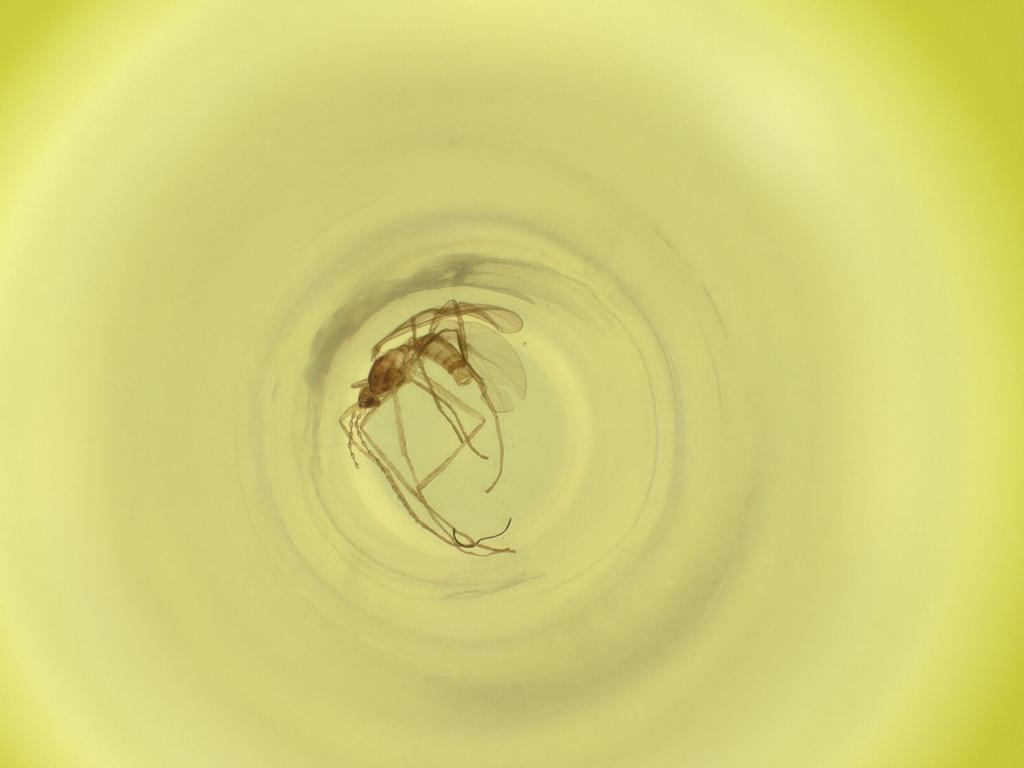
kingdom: Animalia
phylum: Arthropoda
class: Insecta
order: Diptera
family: Cecidomyiidae
